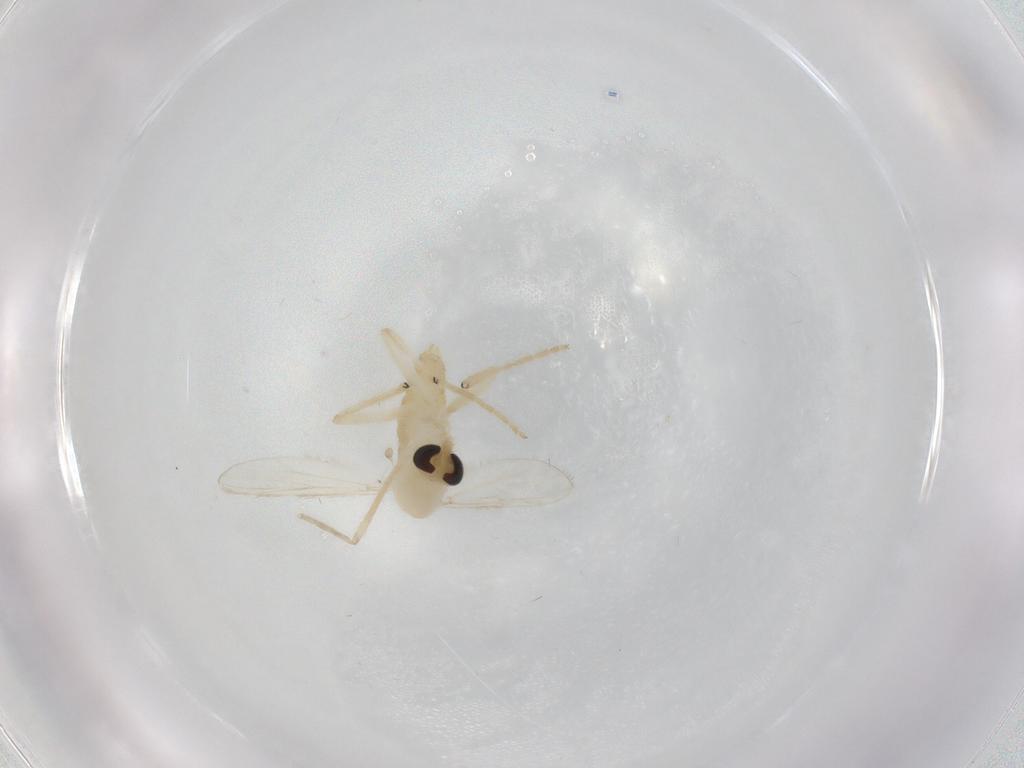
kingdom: Animalia
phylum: Arthropoda
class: Insecta
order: Diptera
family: Chironomidae
